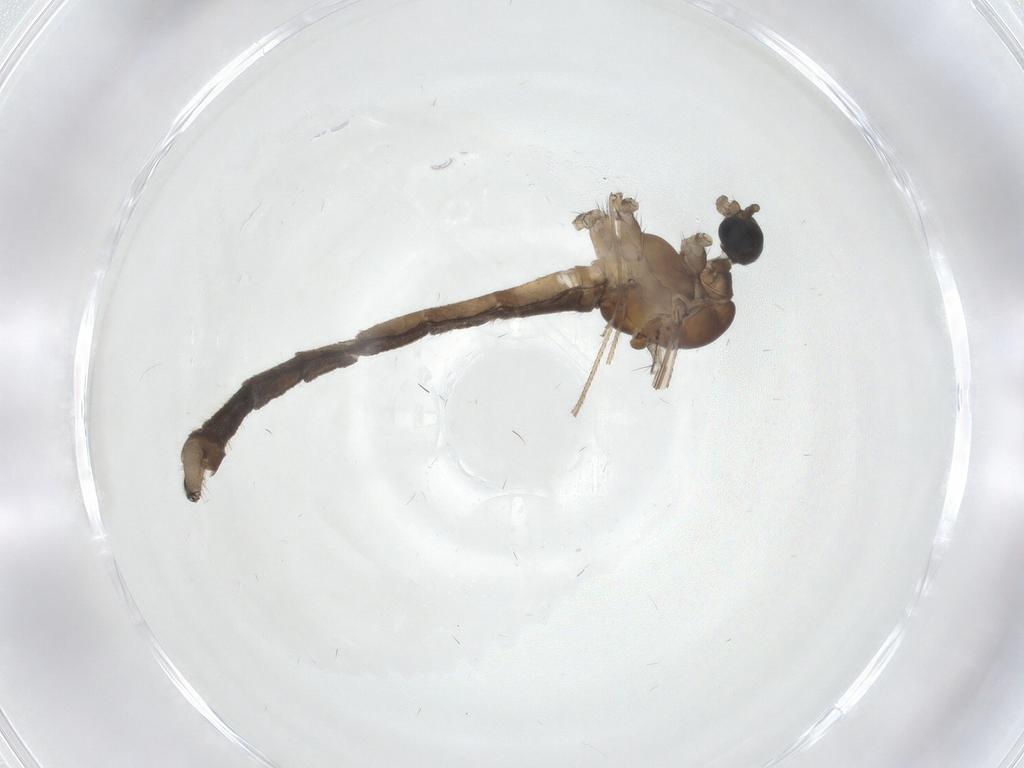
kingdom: Animalia
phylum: Arthropoda
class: Insecta
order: Diptera
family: Limoniidae
